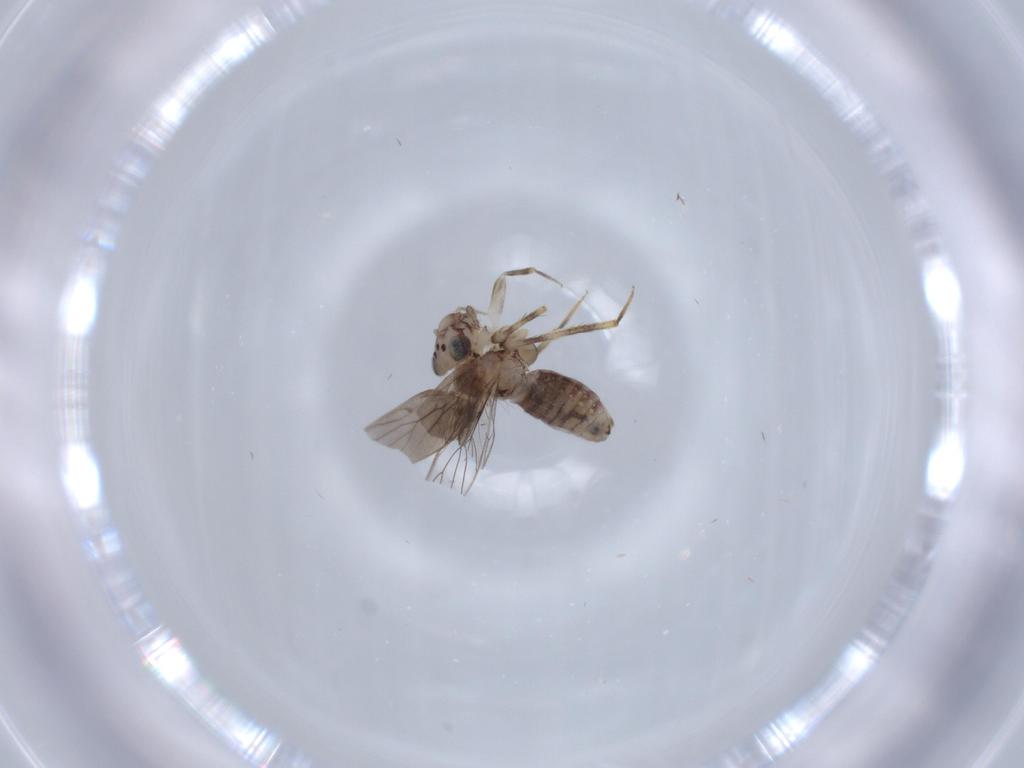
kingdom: Animalia
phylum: Arthropoda
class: Insecta
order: Psocodea
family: Lepidopsocidae
